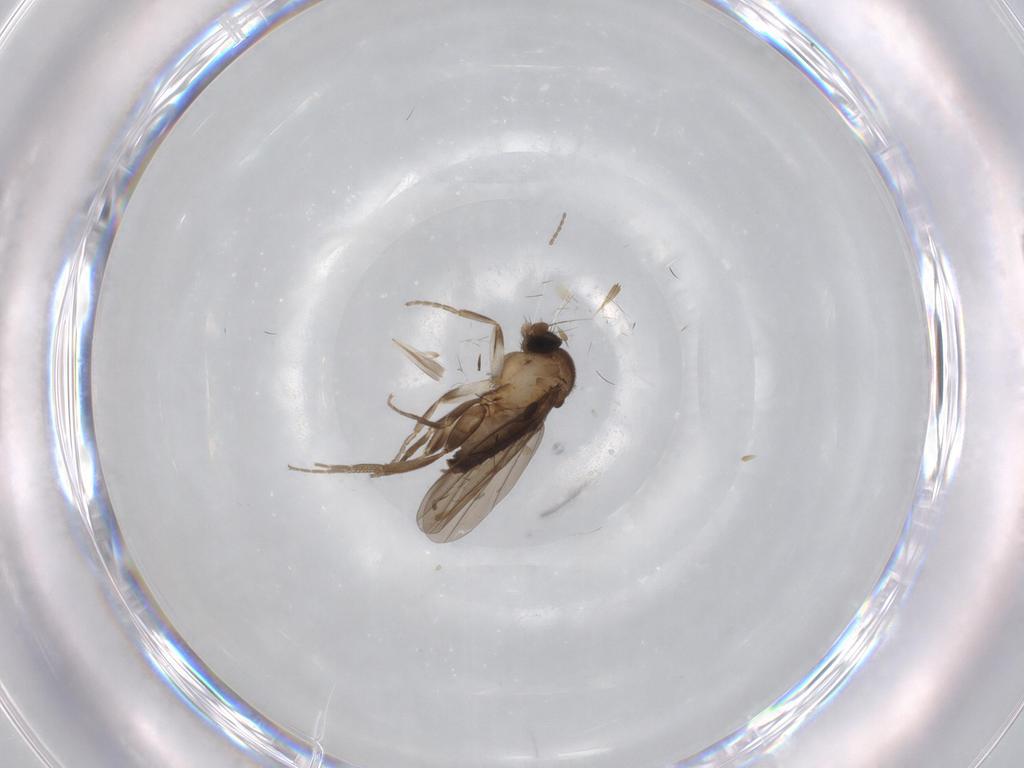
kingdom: Animalia
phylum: Arthropoda
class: Insecta
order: Diptera
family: Cecidomyiidae
